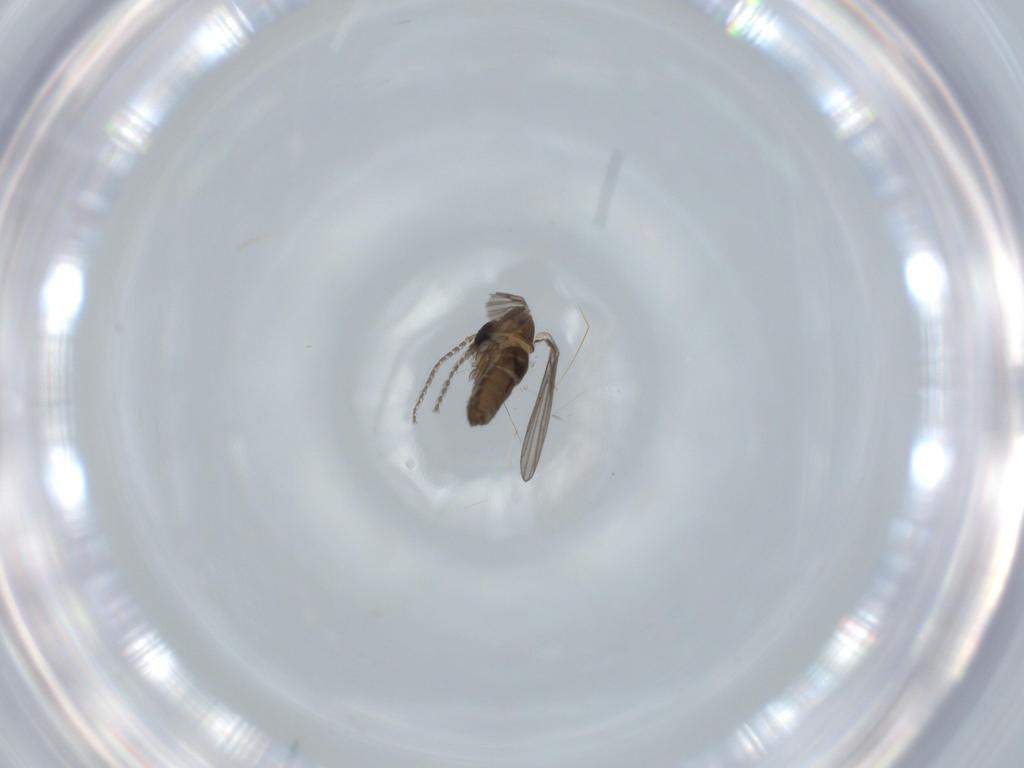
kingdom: Animalia
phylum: Arthropoda
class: Insecta
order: Diptera
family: Psychodidae
